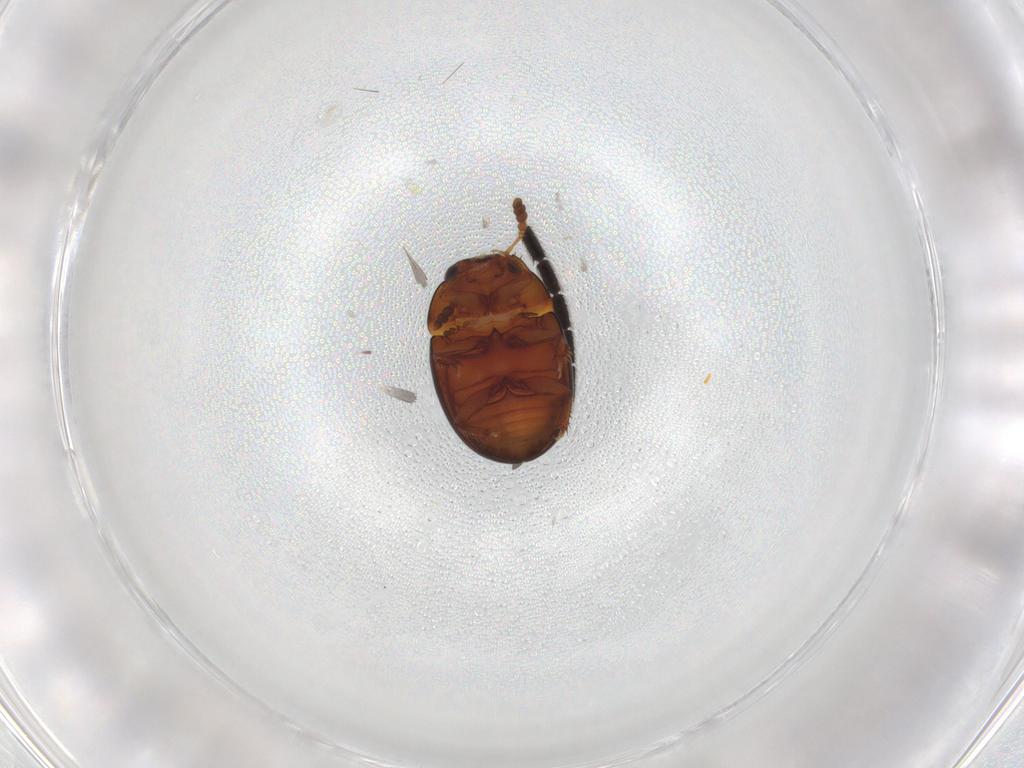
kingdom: Animalia
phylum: Arthropoda
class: Insecta
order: Coleoptera
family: Leiodidae
